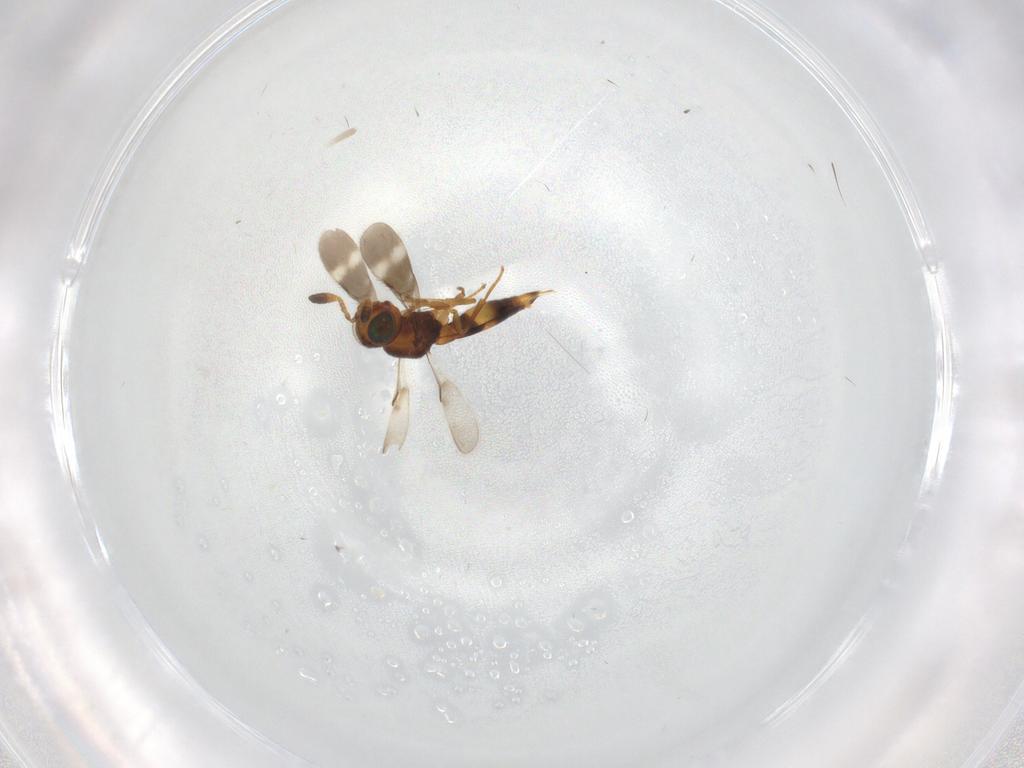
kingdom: Animalia
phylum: Arthropoda
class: Insecta
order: Hymenoptera
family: Scelionidae
